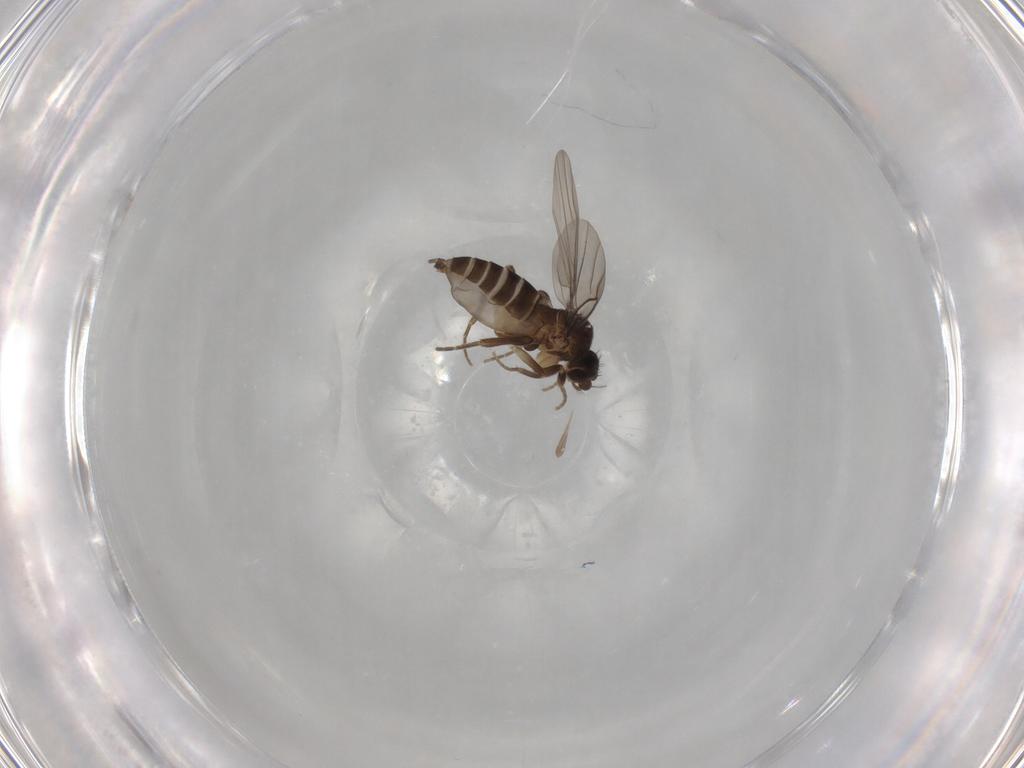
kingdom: Animalia
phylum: Arthropoda
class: Insecta
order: Diptera
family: Phoridae
